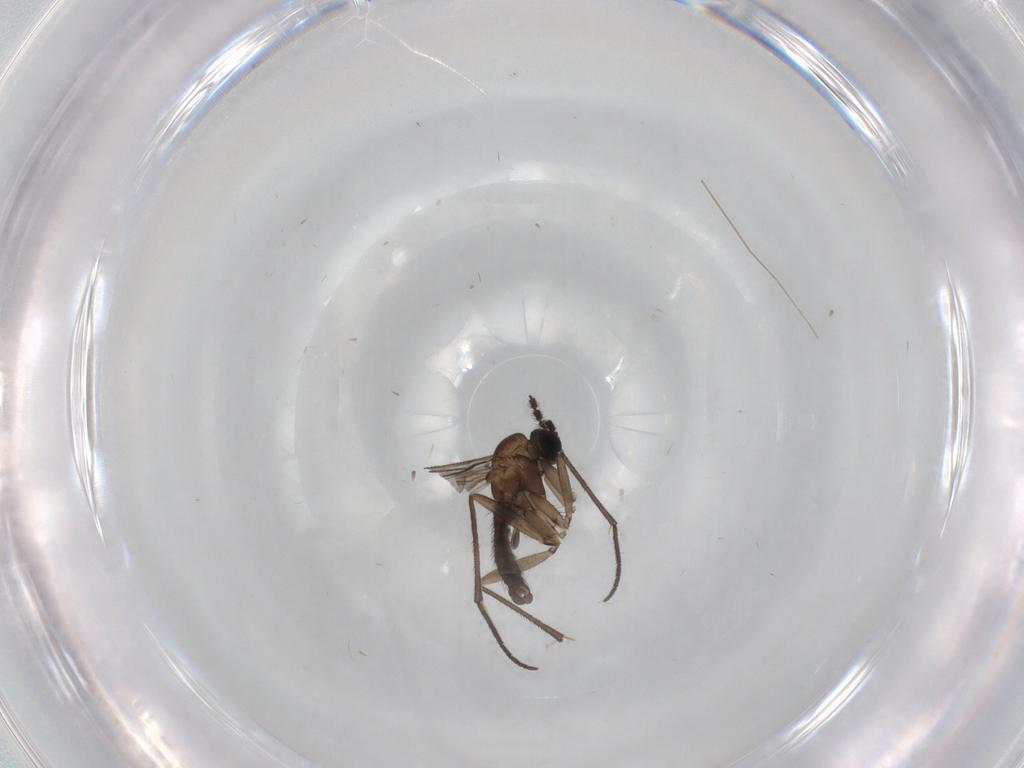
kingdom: Animalia
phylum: Arthropoda
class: Insecta
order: Diptera
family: Sciaridae
